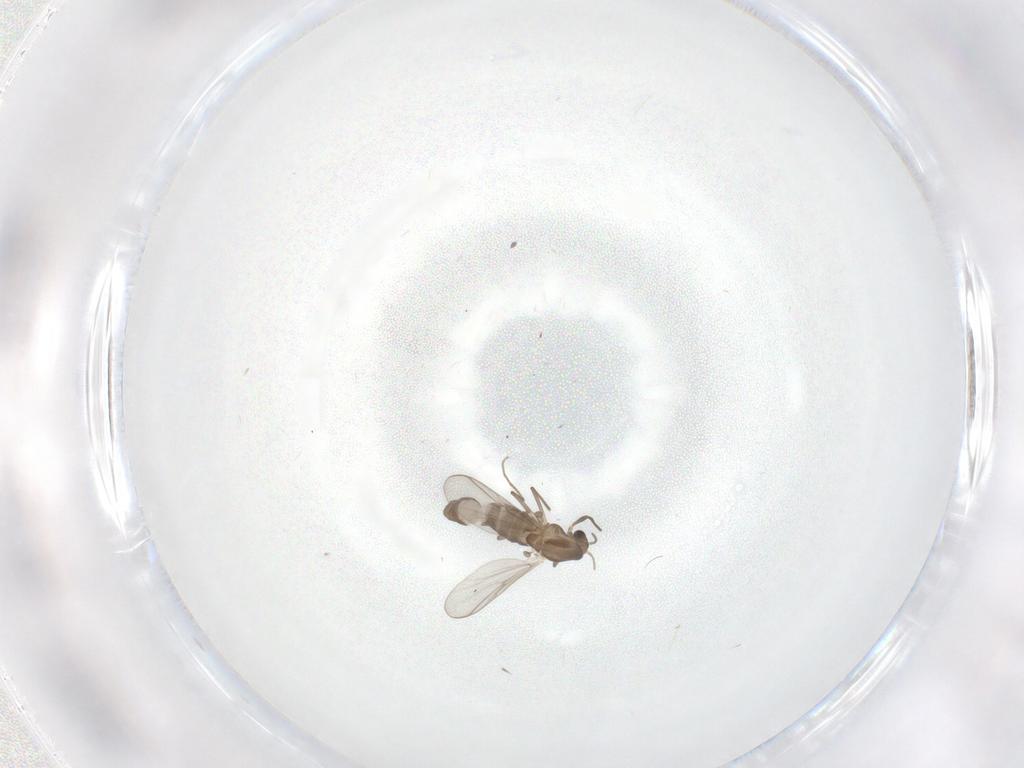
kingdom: Animalia
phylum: Arthropoda
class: Insecta
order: Diptera
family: Chironomidae
